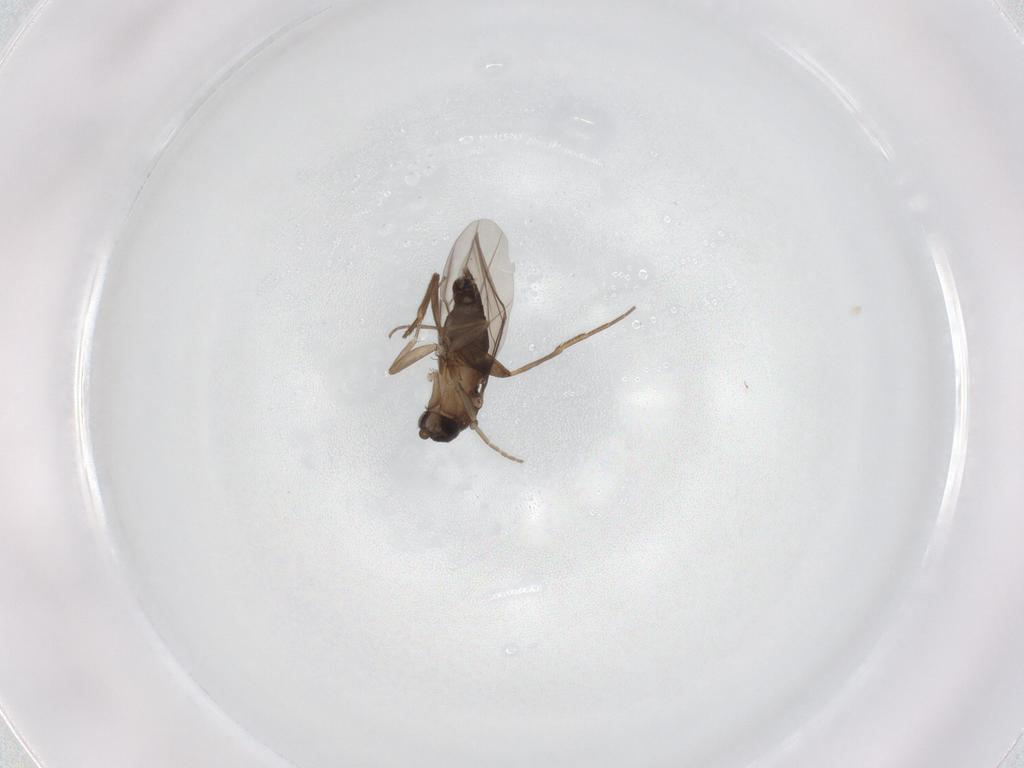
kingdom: Animalia
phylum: Arthropoda
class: Insecta
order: Diptera
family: Phoridae
